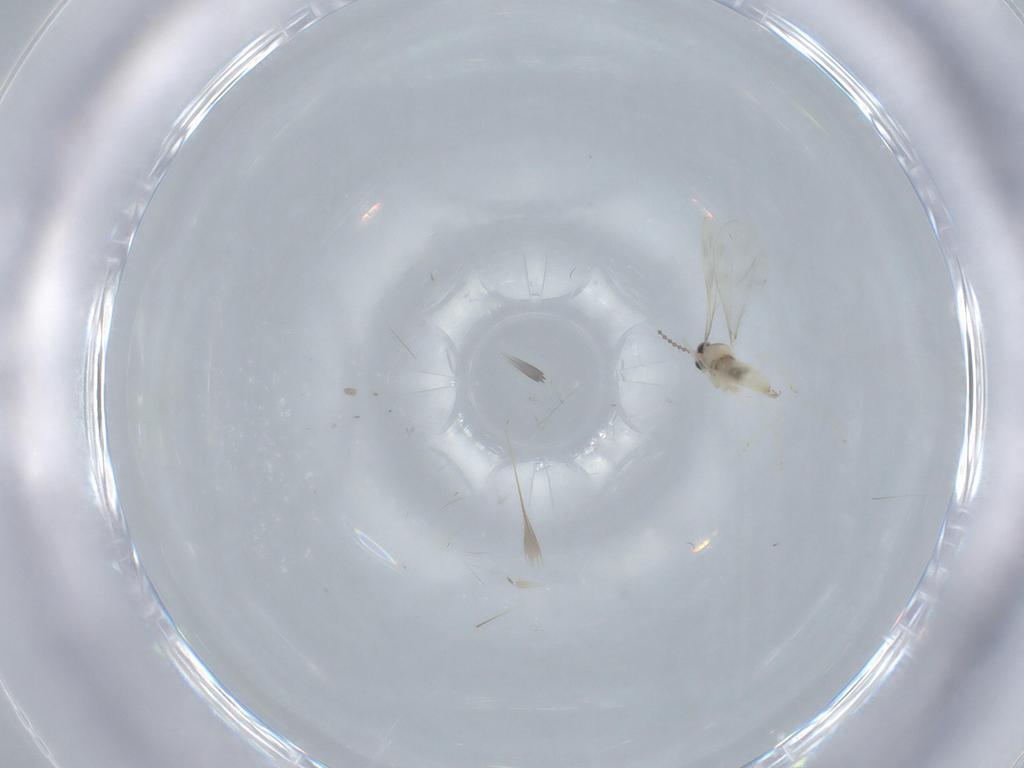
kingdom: Animalia
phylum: Arthropoda
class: Insecta
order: Diptera
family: Cecidomyiidae
